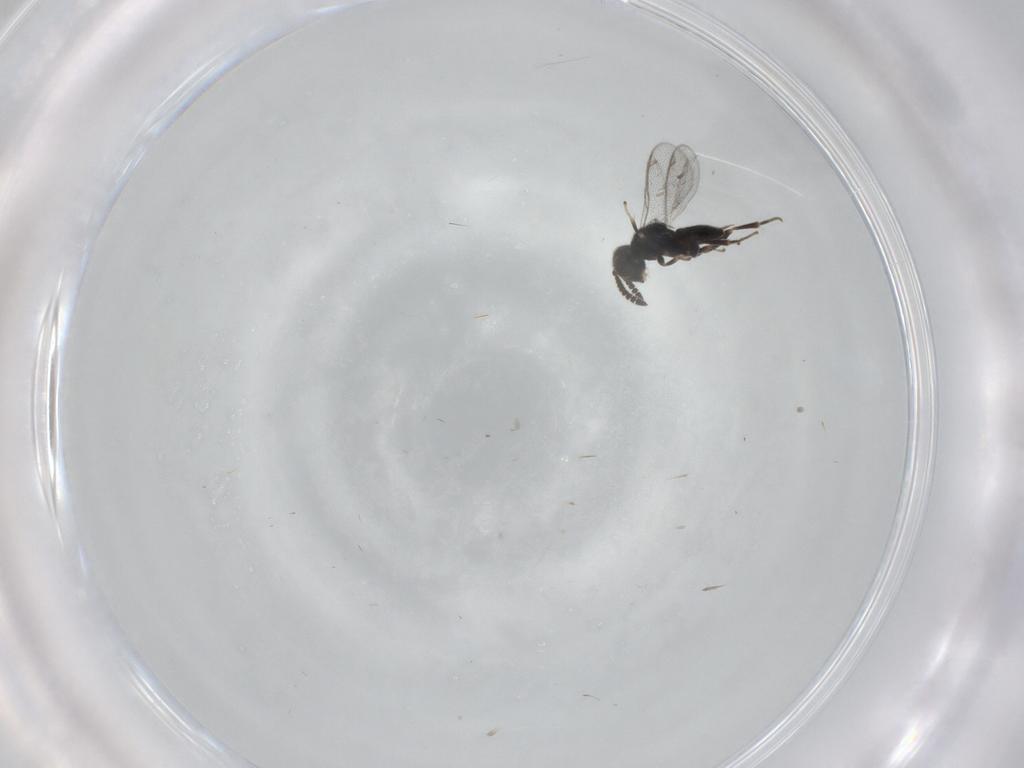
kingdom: Animalia
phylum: Arthropoda
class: Insecta
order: Hymenoptera
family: Cleonyminae
